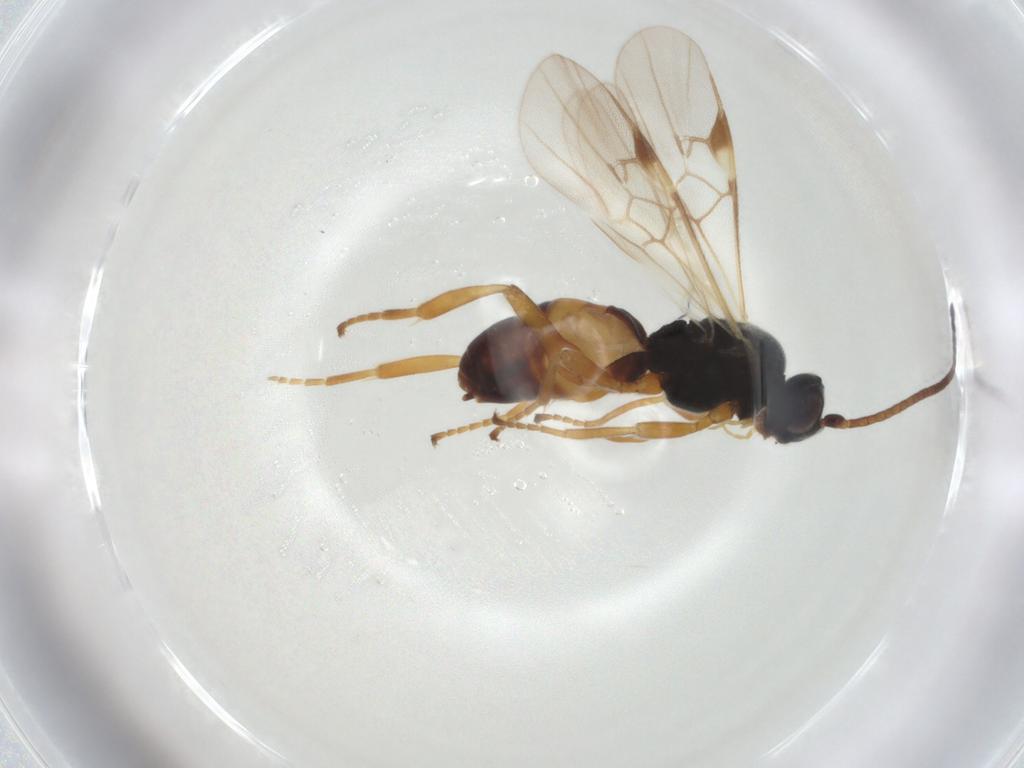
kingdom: Animalia
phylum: Arthropoda
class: Insecta
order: Hymenoptera
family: Braconidae
